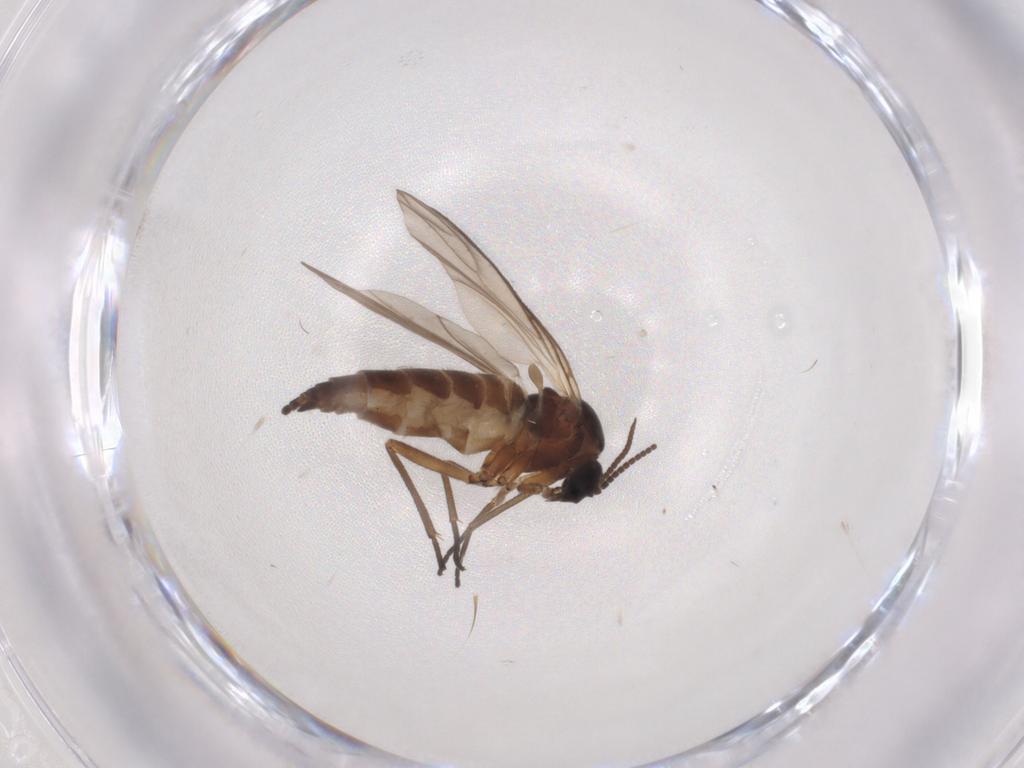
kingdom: Animalia
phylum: Arthropoda
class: Insecta
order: Diptera
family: Sciaridae
